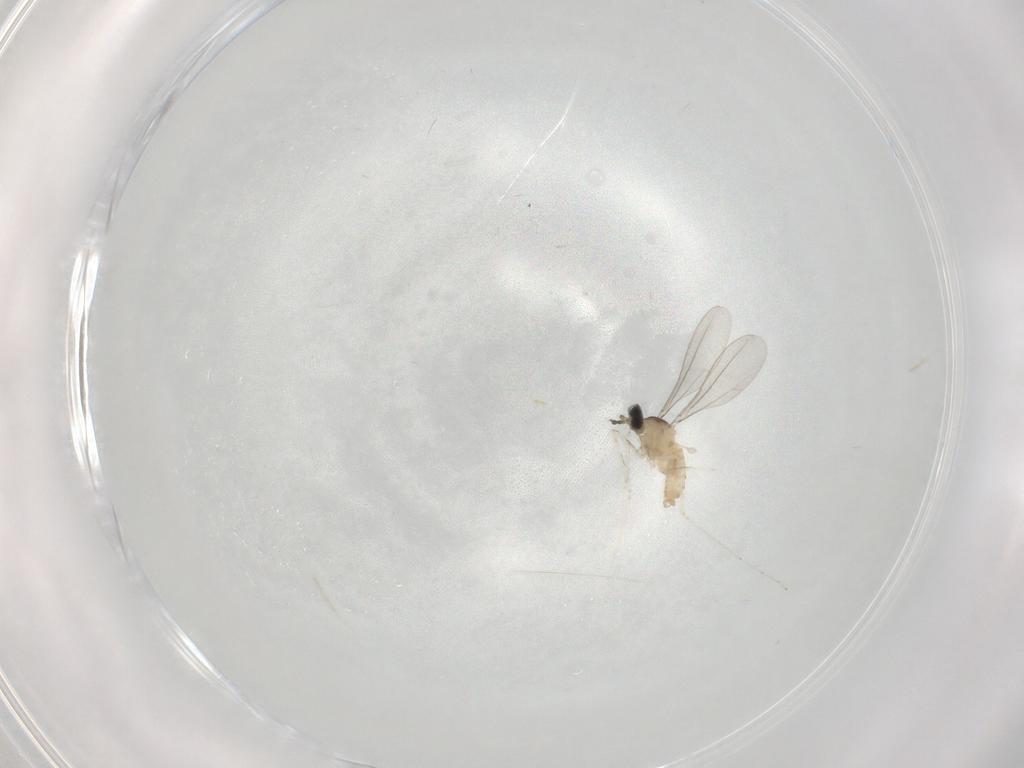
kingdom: Animalia
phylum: Arthropoda
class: Insecta
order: Diptera
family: Cecidomyiidae
